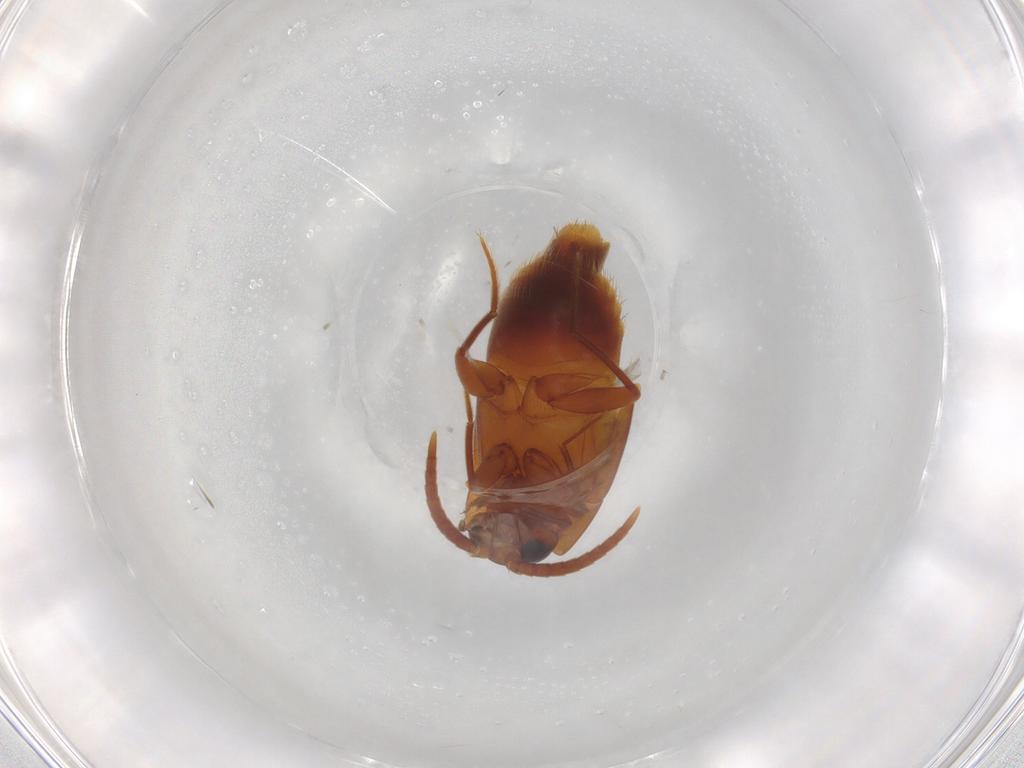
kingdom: Animalia
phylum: Arthropoda
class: Insecta
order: Coleoptera
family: Staphylinidae
